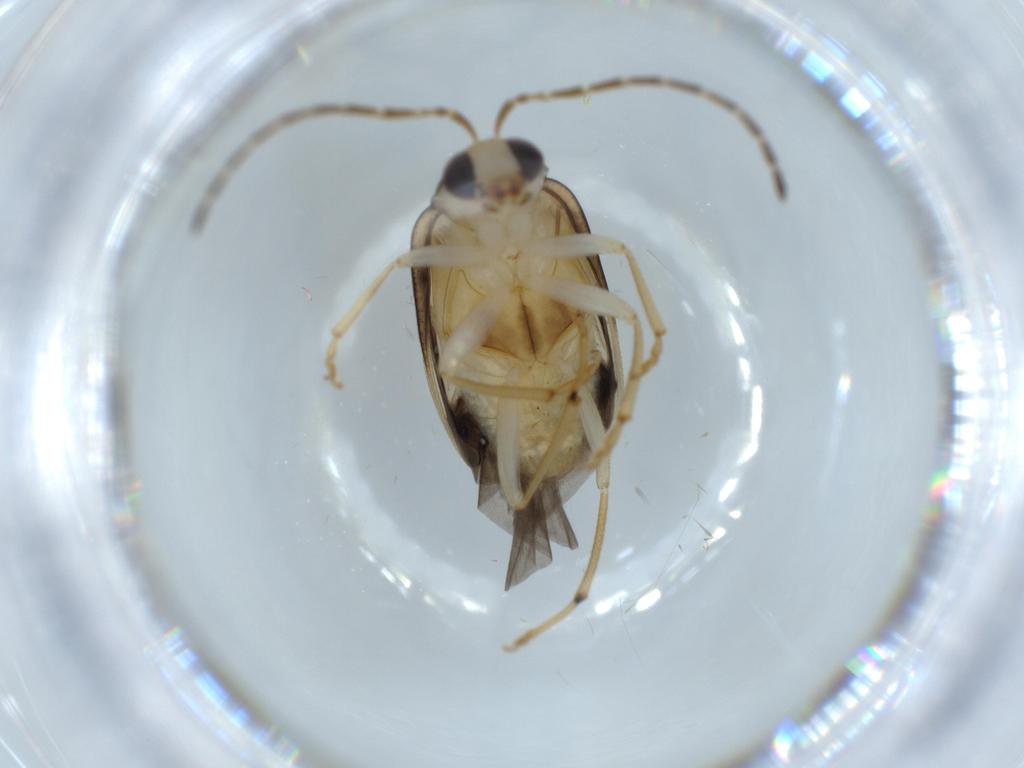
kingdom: Animalia
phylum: Arthropoda
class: Insecta
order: Coleoptera
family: Chrysomelidae
